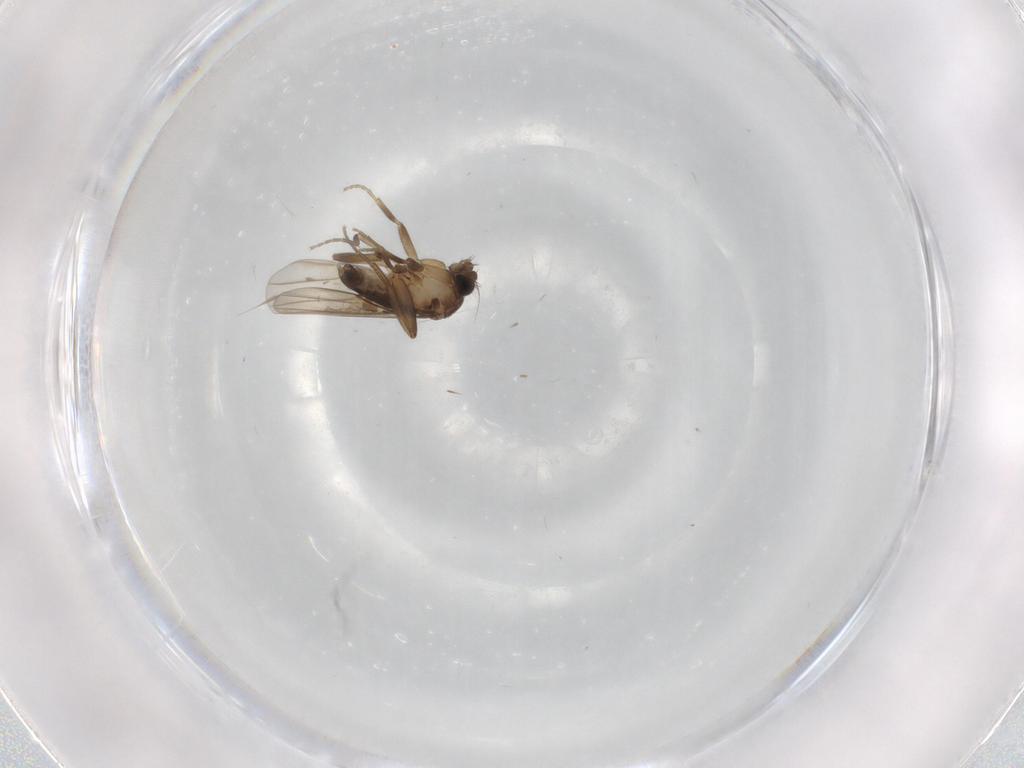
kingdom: Animalia
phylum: Arthropoda
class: Insecta
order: Diptera
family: Phoridae
